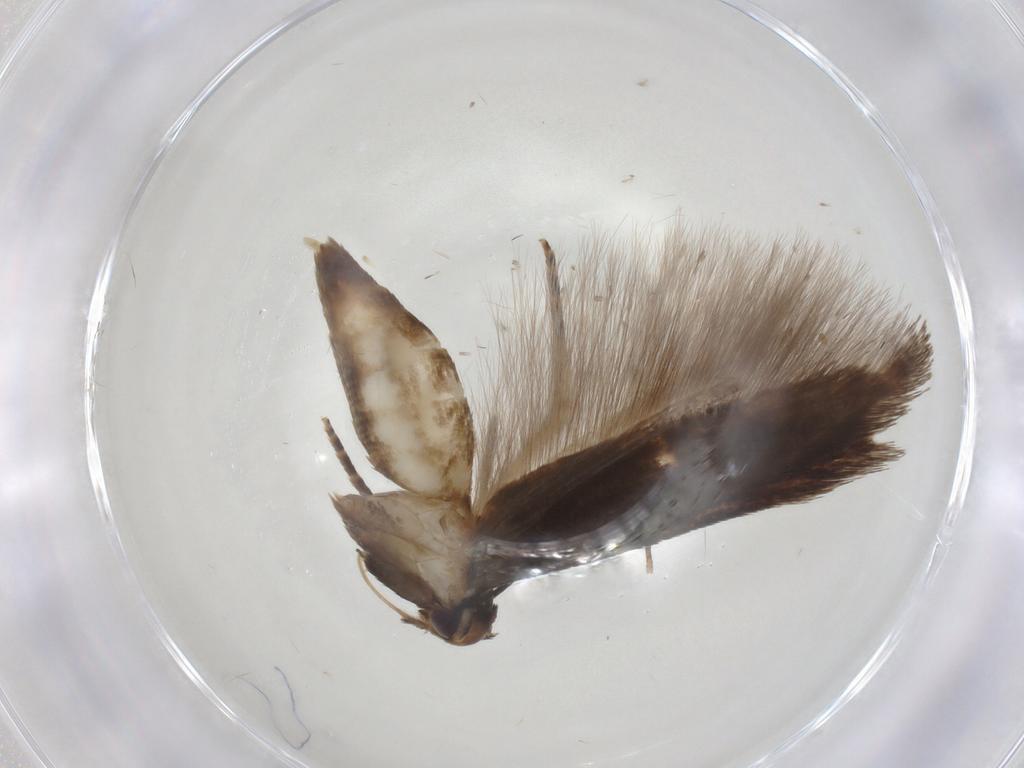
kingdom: Animalia
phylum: Arthropoda
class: Insecta
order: Lepidoptera
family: Cosmopterigidae
